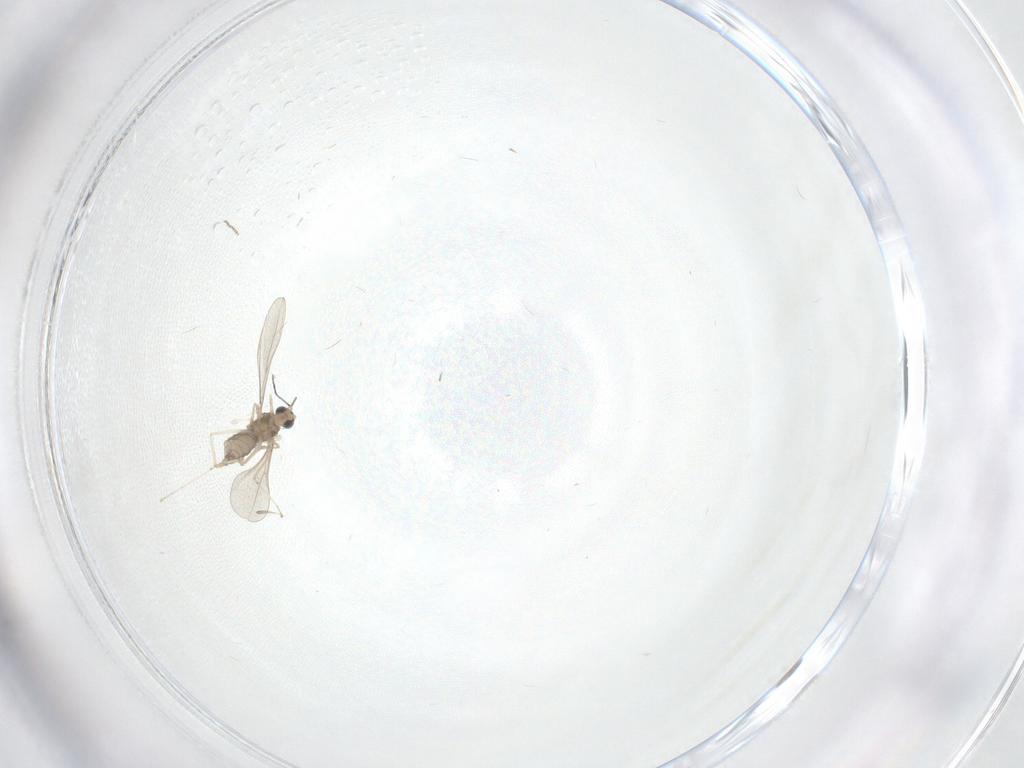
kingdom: Animalia
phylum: Arthropoda
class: Insecta
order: Diptera
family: Cecidomyiidae
